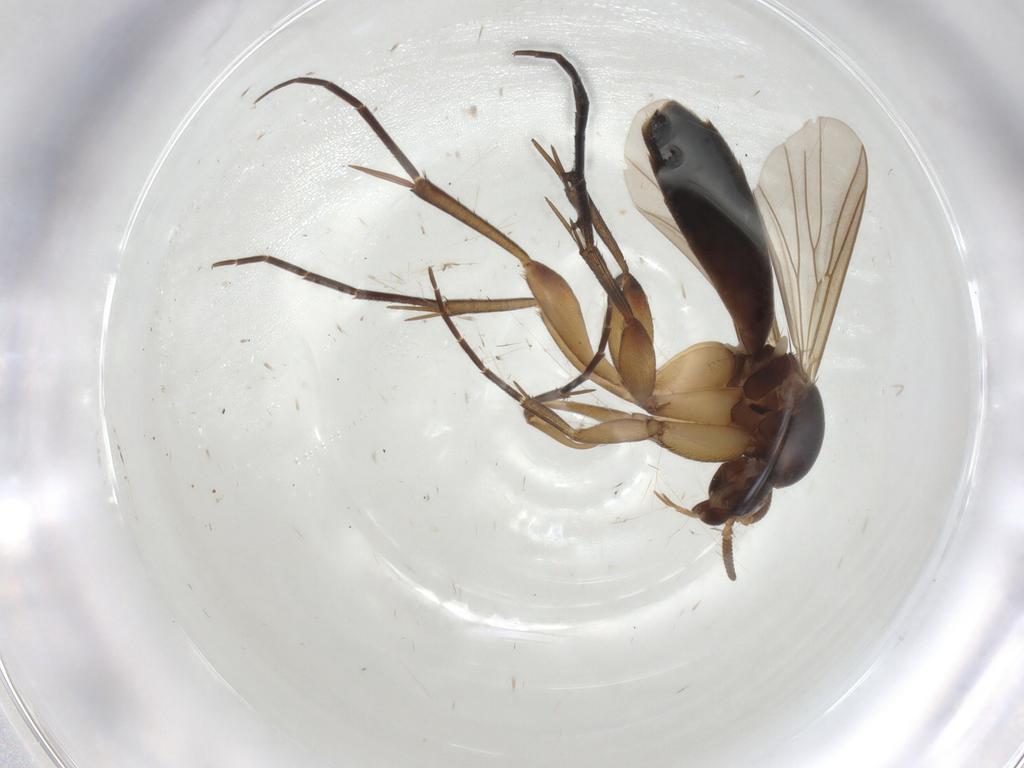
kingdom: Animalia
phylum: Arthropoda
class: Insecta
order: Diptera
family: Mycetophilidae
